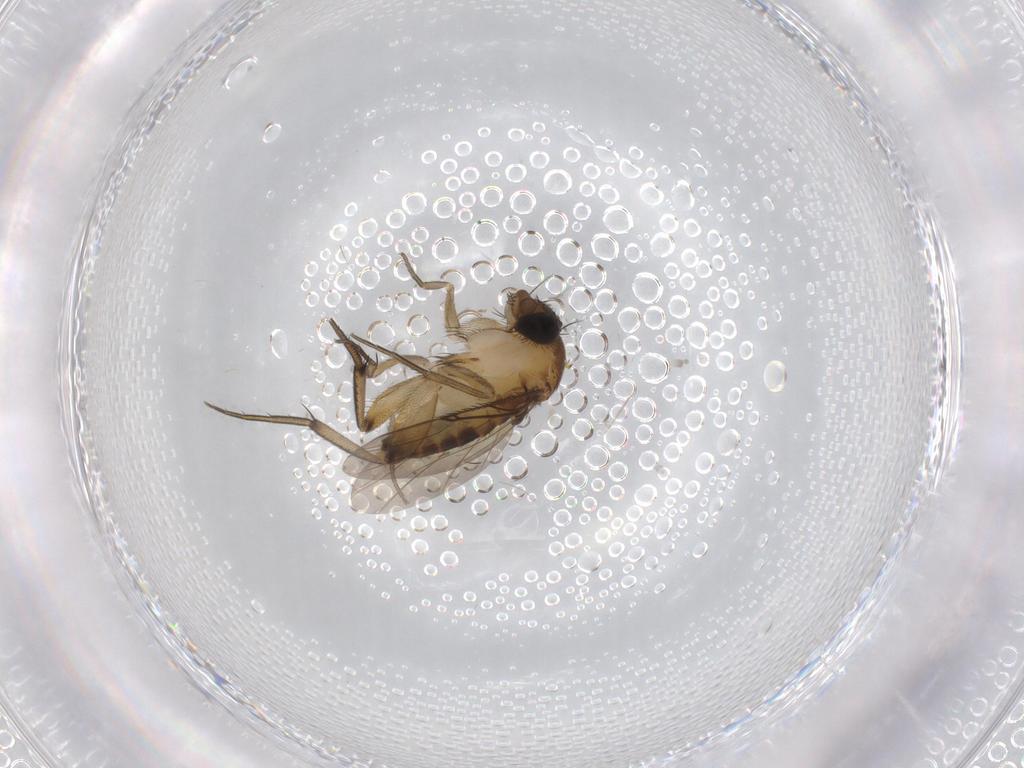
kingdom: Animalia
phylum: Arthropoda
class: Insecta
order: Diptera
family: Phoridae
